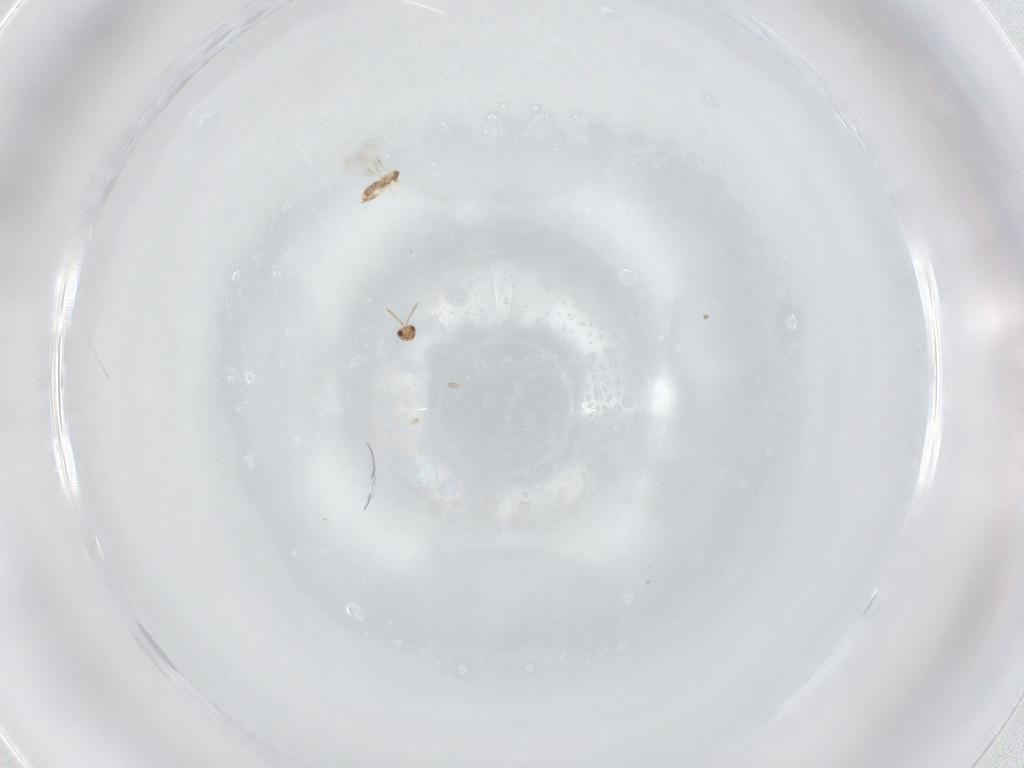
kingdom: Animalia
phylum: Arthropoda
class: Insecta
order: Hymenoptera
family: Aphelinidae
